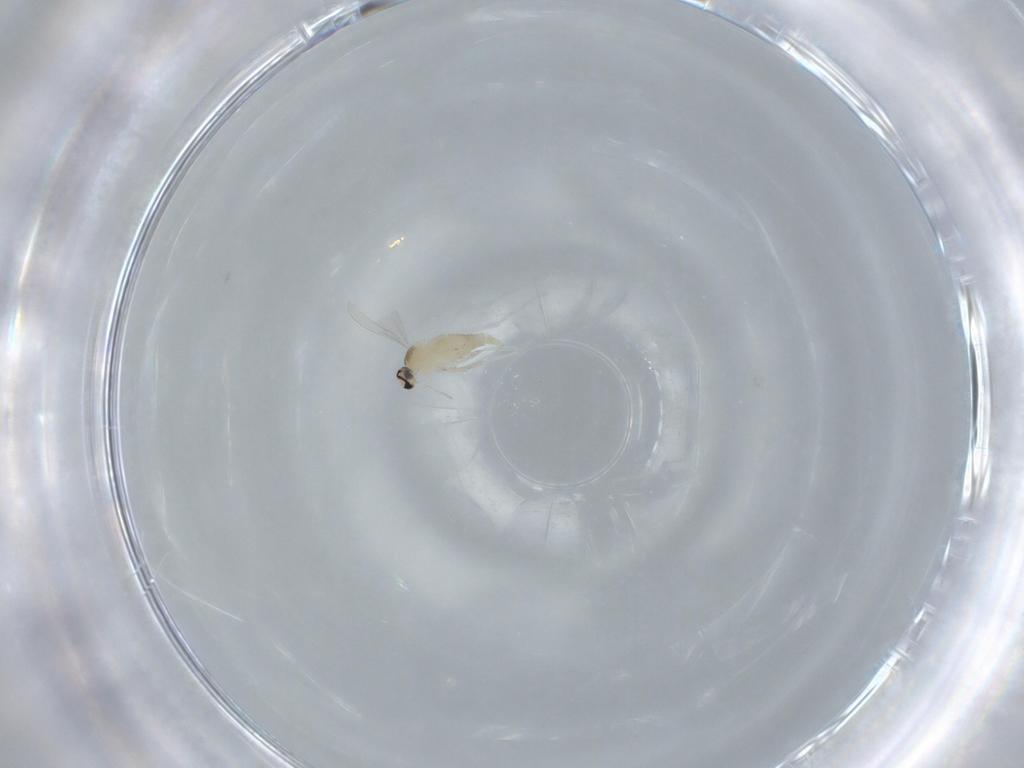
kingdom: Animalia
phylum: Arthropoda
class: Insecta
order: Diptera
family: Cecidomyiidae
